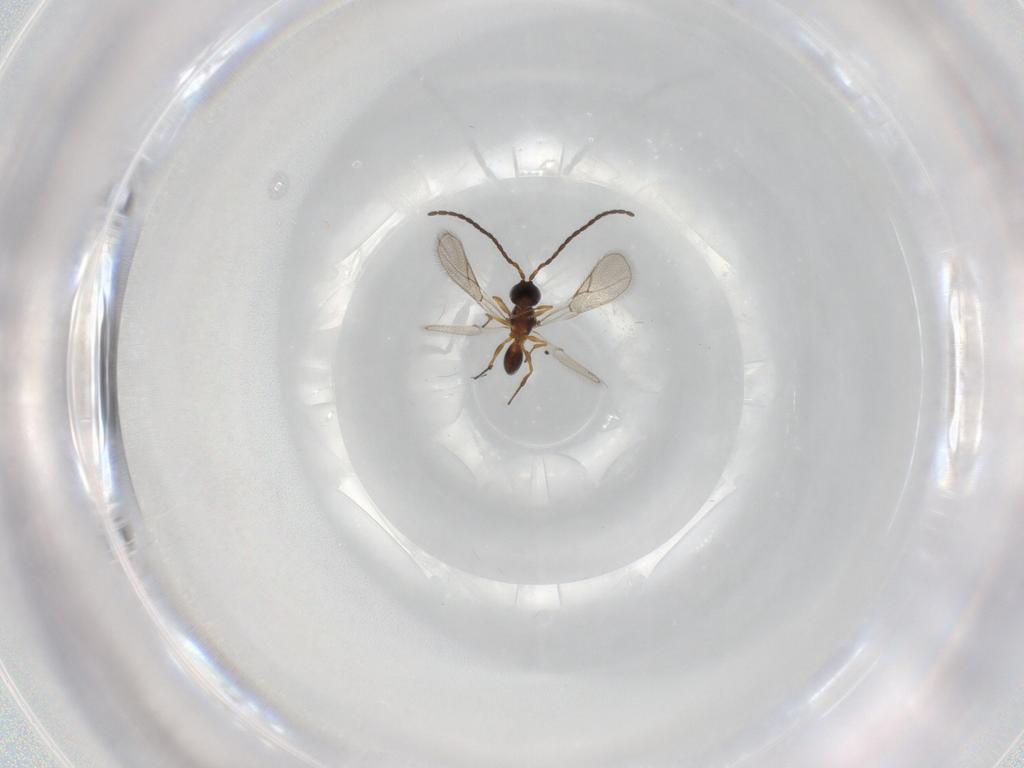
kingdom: Animalia
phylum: Arthropoda
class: Insecta
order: Hymenoptera
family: Figitidae
